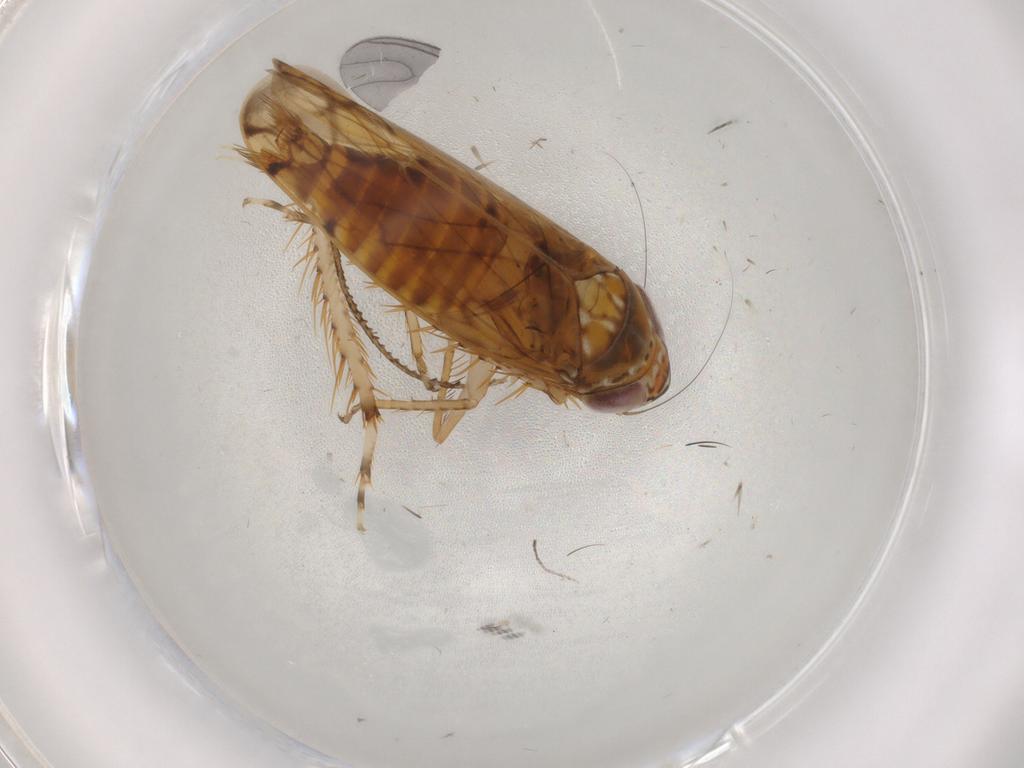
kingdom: Animalia
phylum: Arthropoda
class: Insecta
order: Hemiptera
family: Cicadellidae
